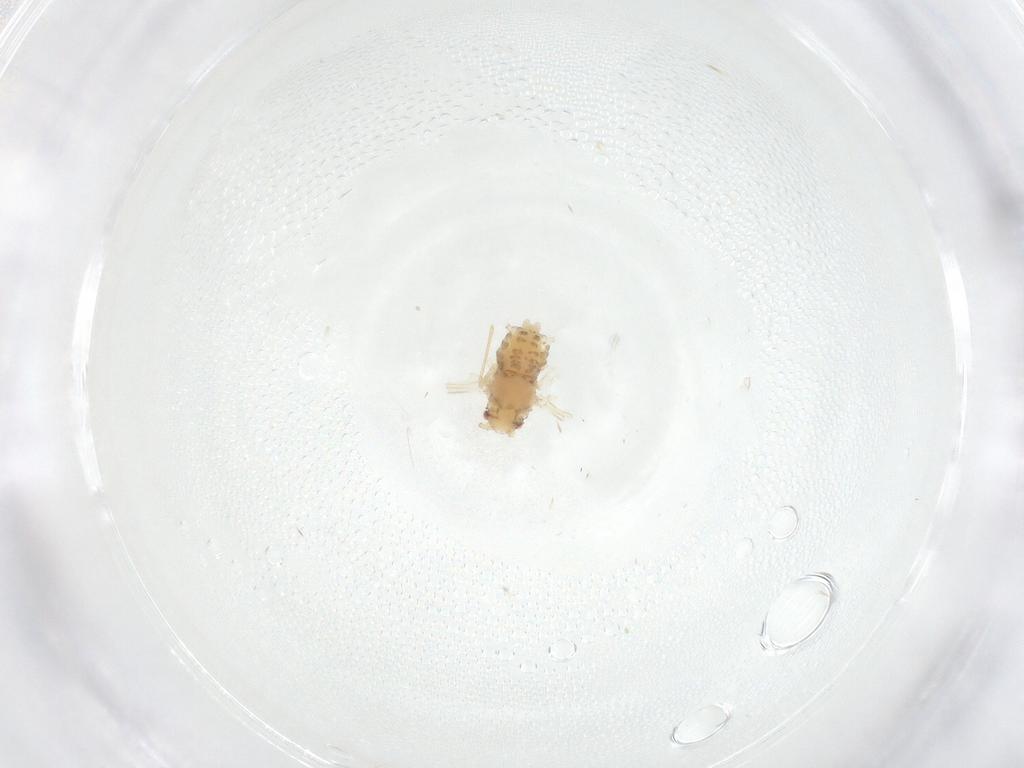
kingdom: Animalia
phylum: Arthropoda
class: Insecta
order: Hemiptera
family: Aphididae
